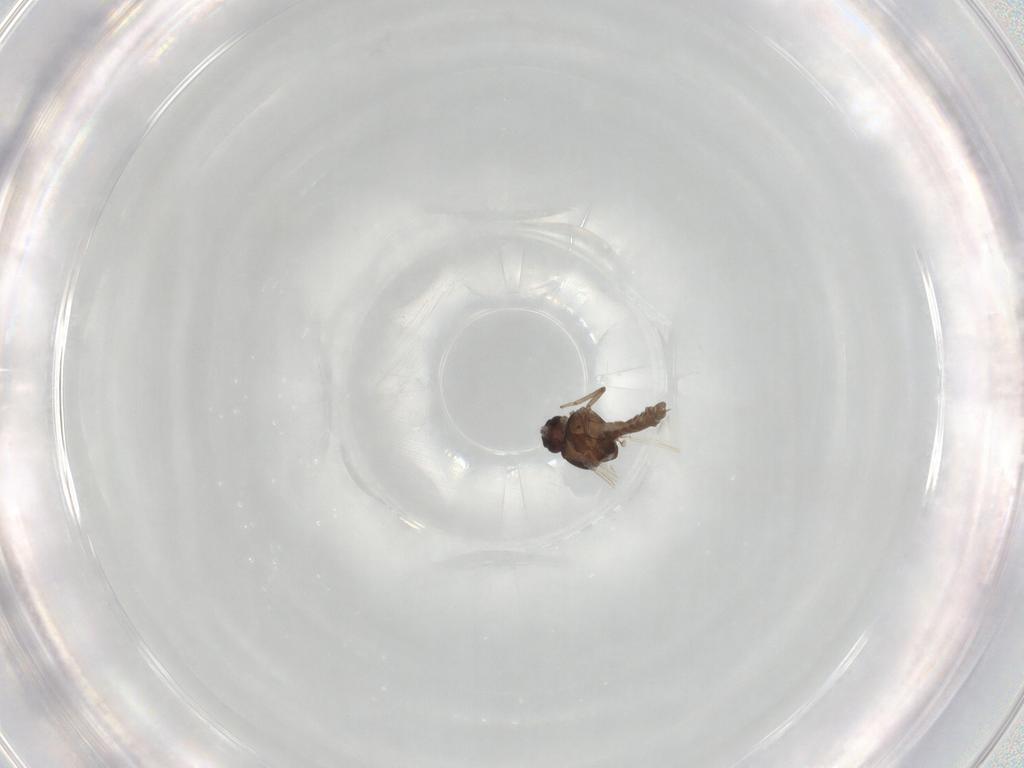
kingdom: Animalia
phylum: Arthropoda
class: Insecta
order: Diptera
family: Ceratopogonidae
